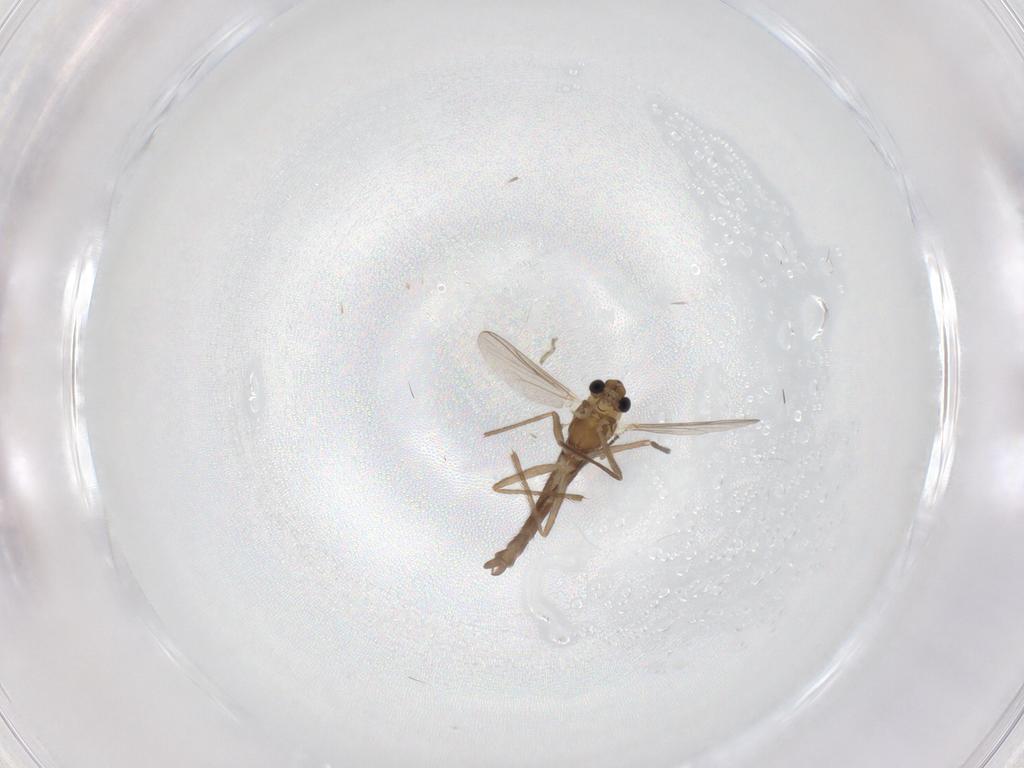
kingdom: Animalia
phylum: Arthropoda
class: Insecta
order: Diptera
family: Chironomidae
